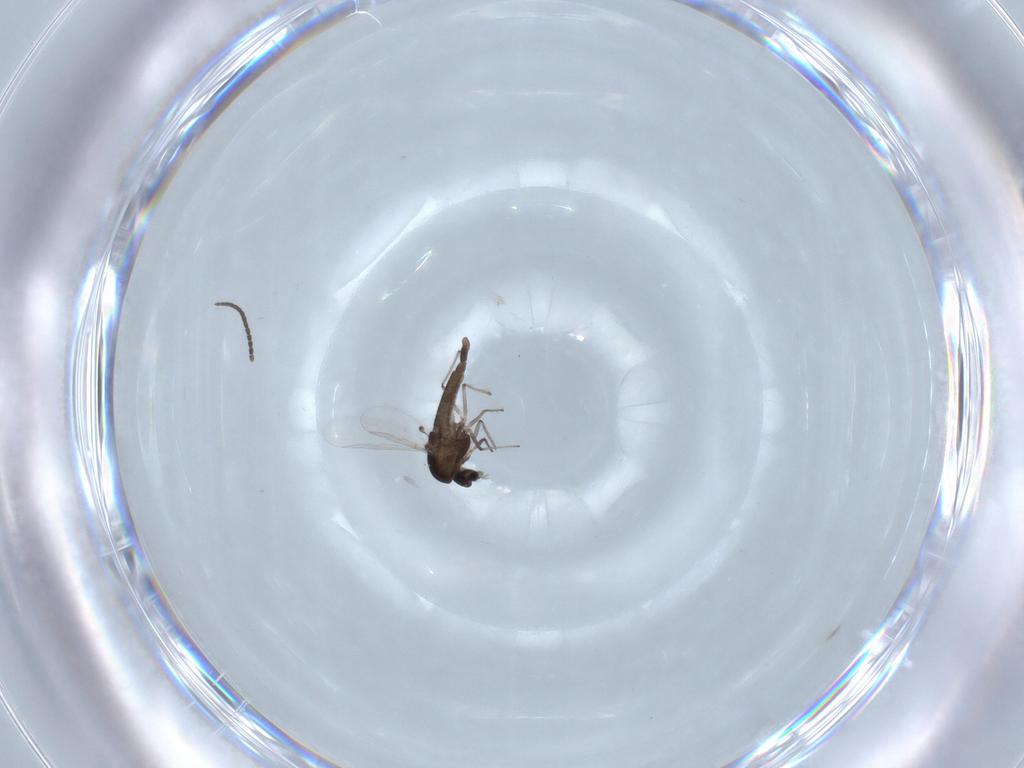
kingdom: Animalia
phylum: Arthropoda
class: Insecta
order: Diptera
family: Chironomidae
